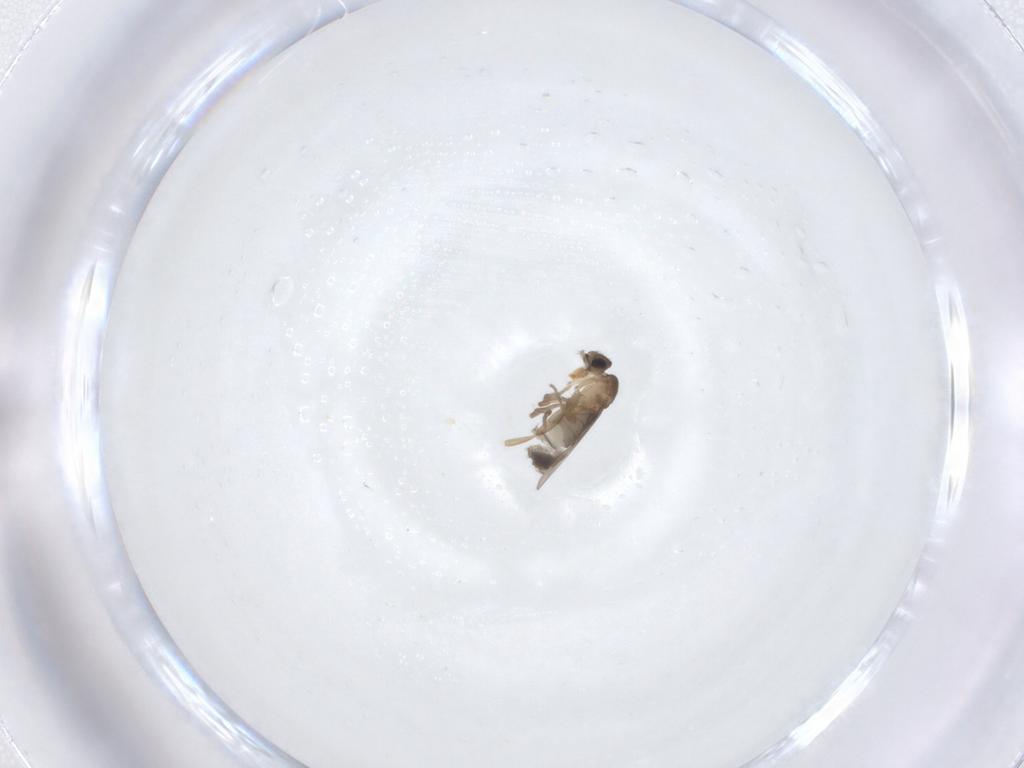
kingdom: Animalia
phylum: Arthropoda
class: Insecta
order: Diptera
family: Phoridae
